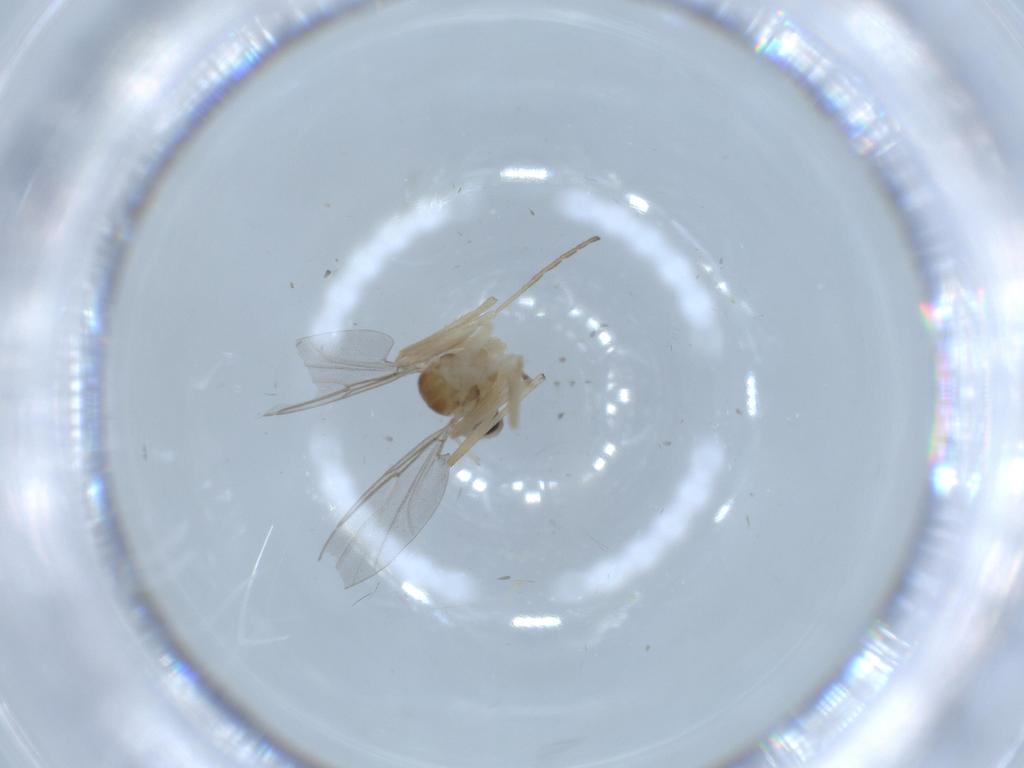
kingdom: Animalia
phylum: Arthropoda
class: Insecta
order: Diptera
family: Cecidomyiidae
